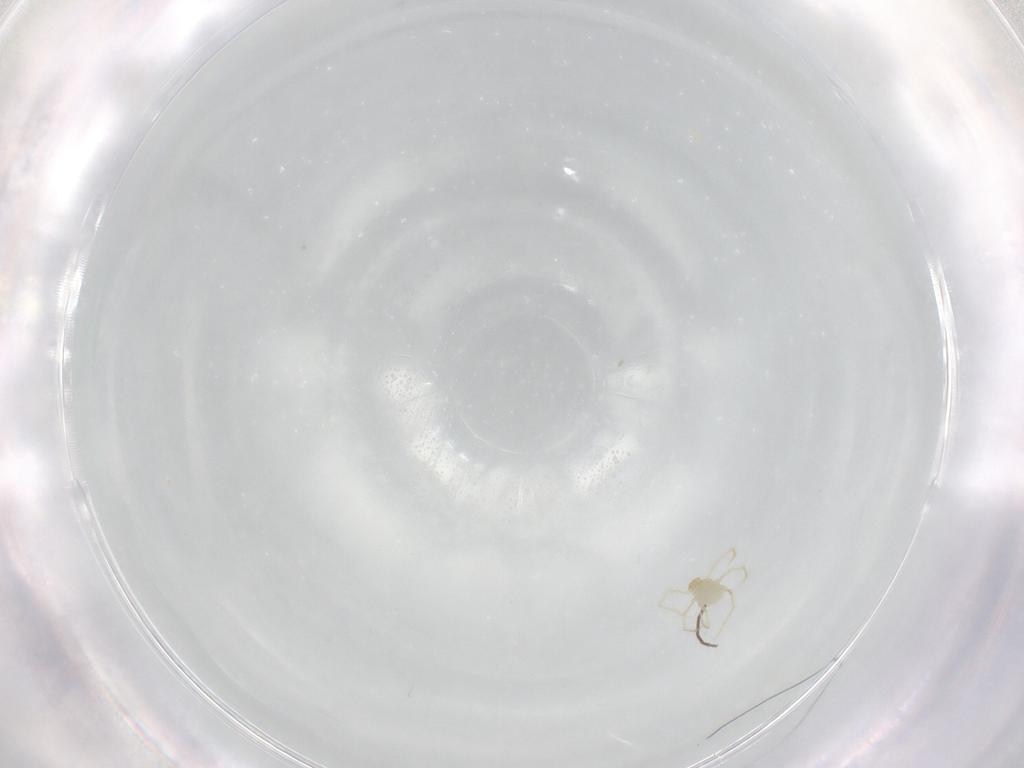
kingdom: Animalia
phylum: Arthropoda
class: Arachnida
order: Trombidiformes
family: Erythraeidae
